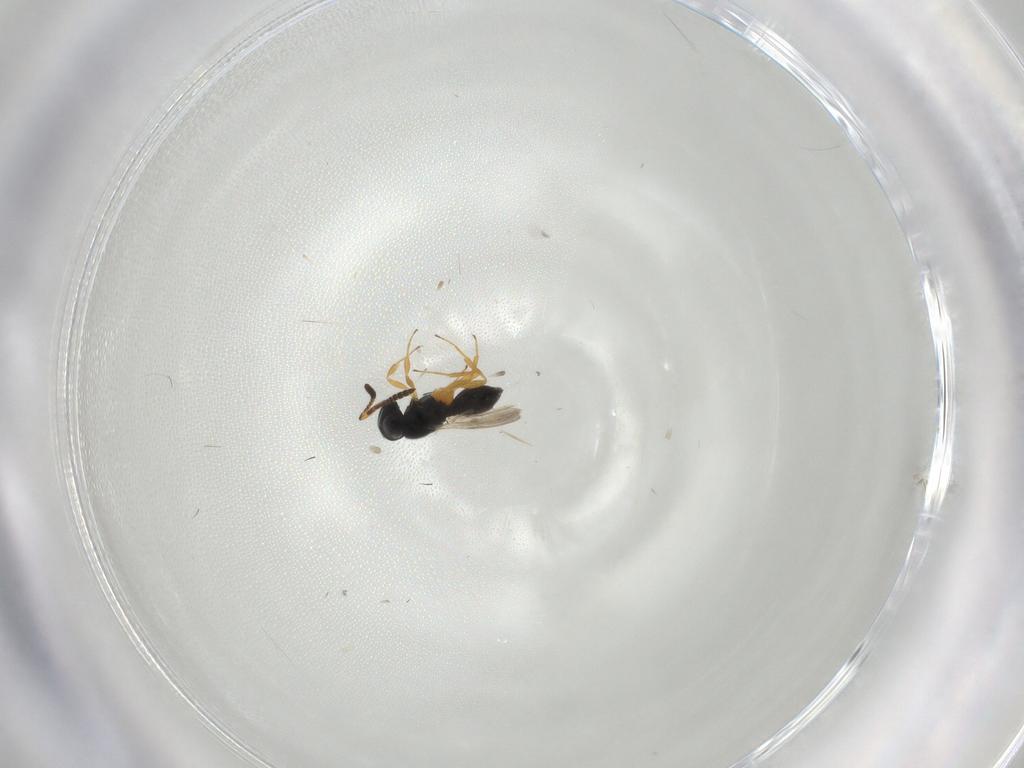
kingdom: Animalia
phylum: Arthropoda
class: Insecta
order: Hymenoptera
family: Scelionidae
